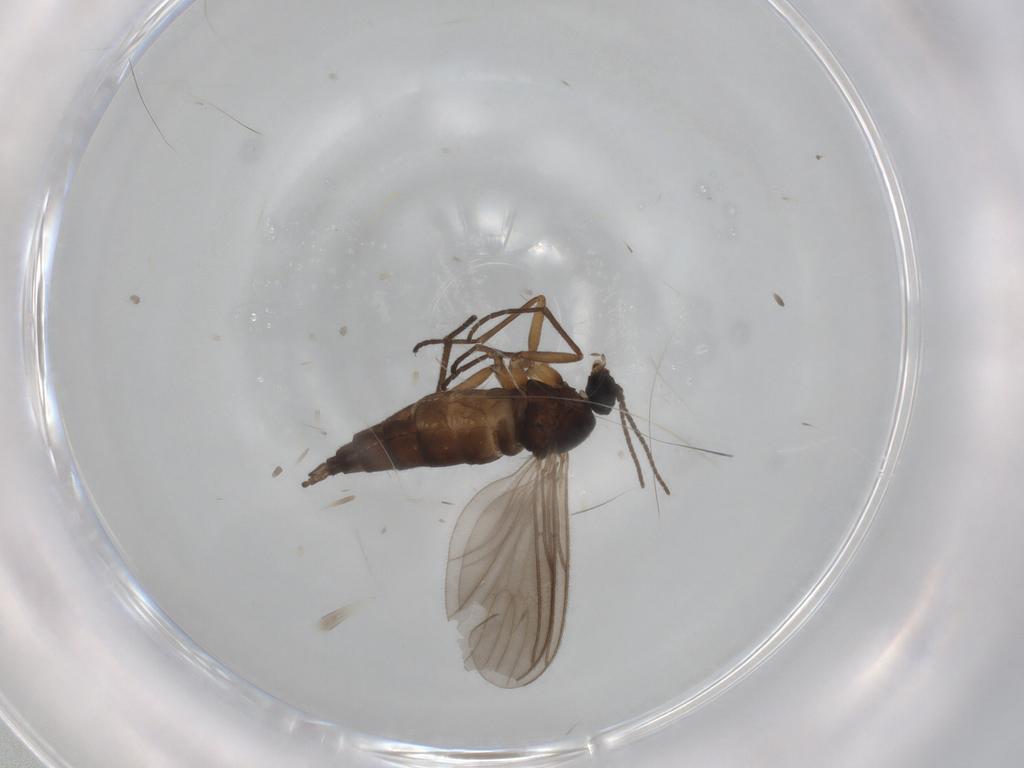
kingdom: Animalia
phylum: Arthropoda
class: Insecta
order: Diptera
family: Sciaridae
